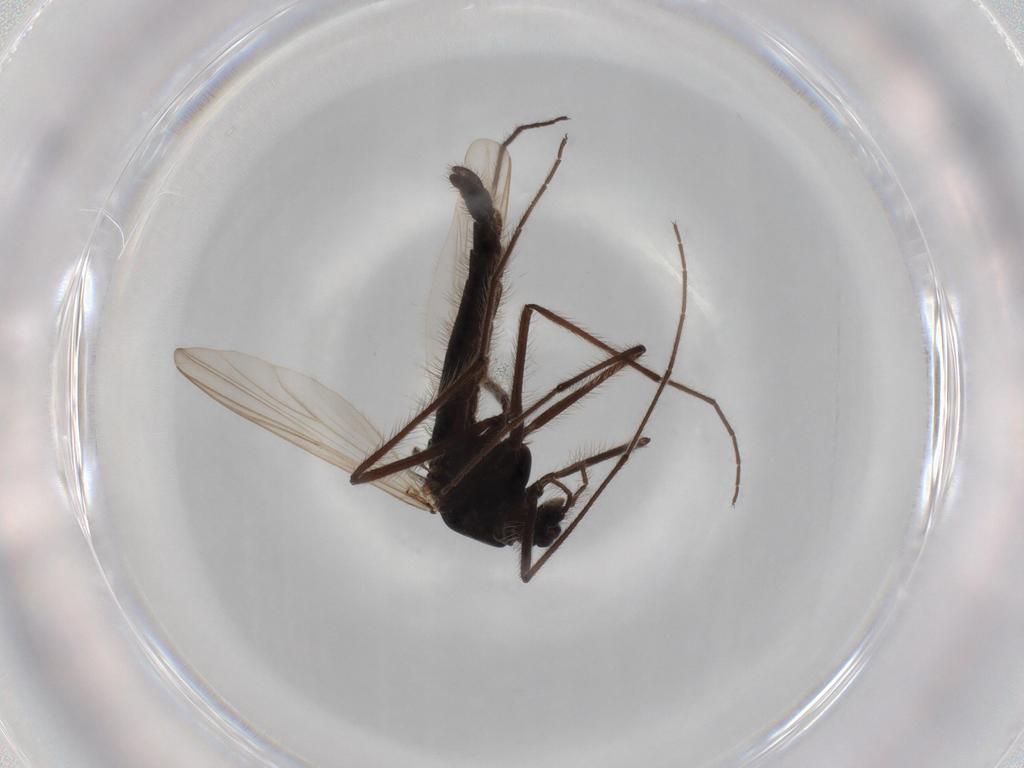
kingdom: Animalia
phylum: Arthropoda
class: Insecta
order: Diptera
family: Sciaridae
